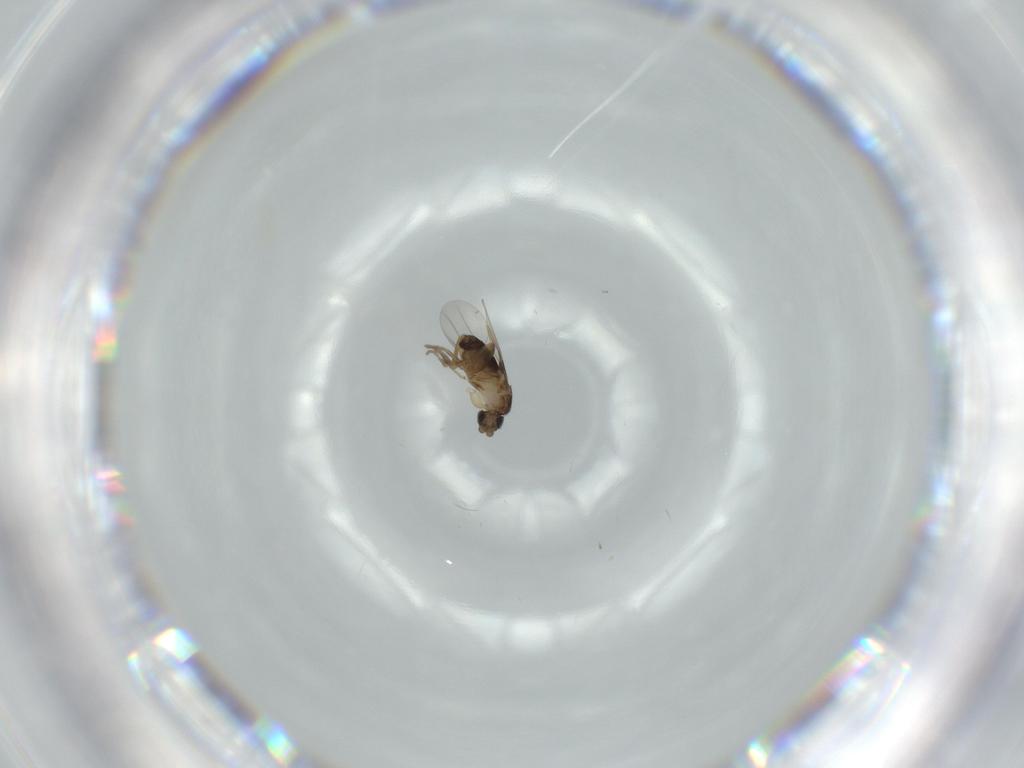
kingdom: Animalia
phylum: Arthropoda
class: Insecta
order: Diptera
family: Phoridae
